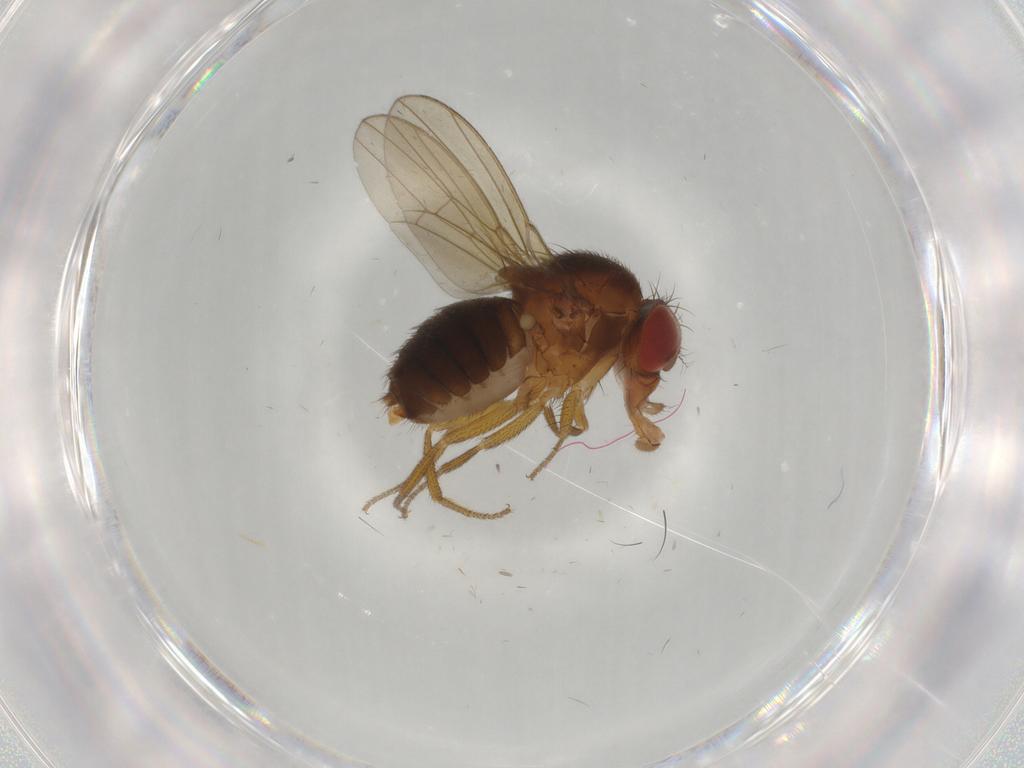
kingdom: Animalia
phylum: Arthropoda
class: Insecta
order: Diptera
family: Drosophilidae
